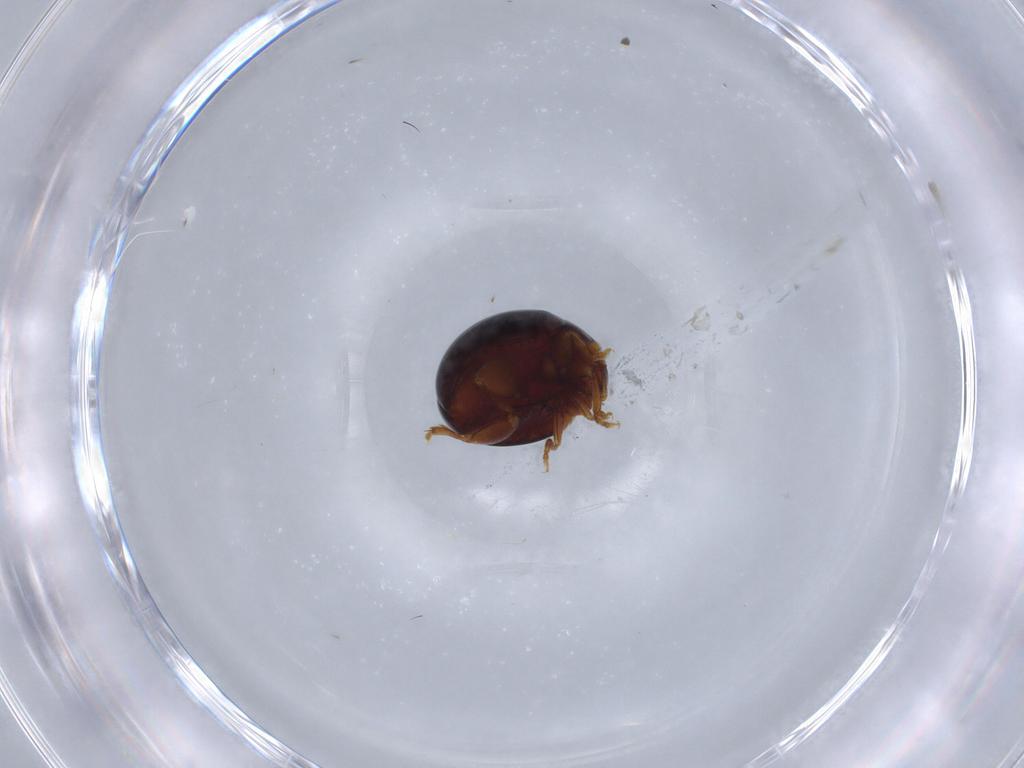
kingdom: Animalia
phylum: Arthropoda
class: Insecta
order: Coleoptera
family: Chrysomelidae
